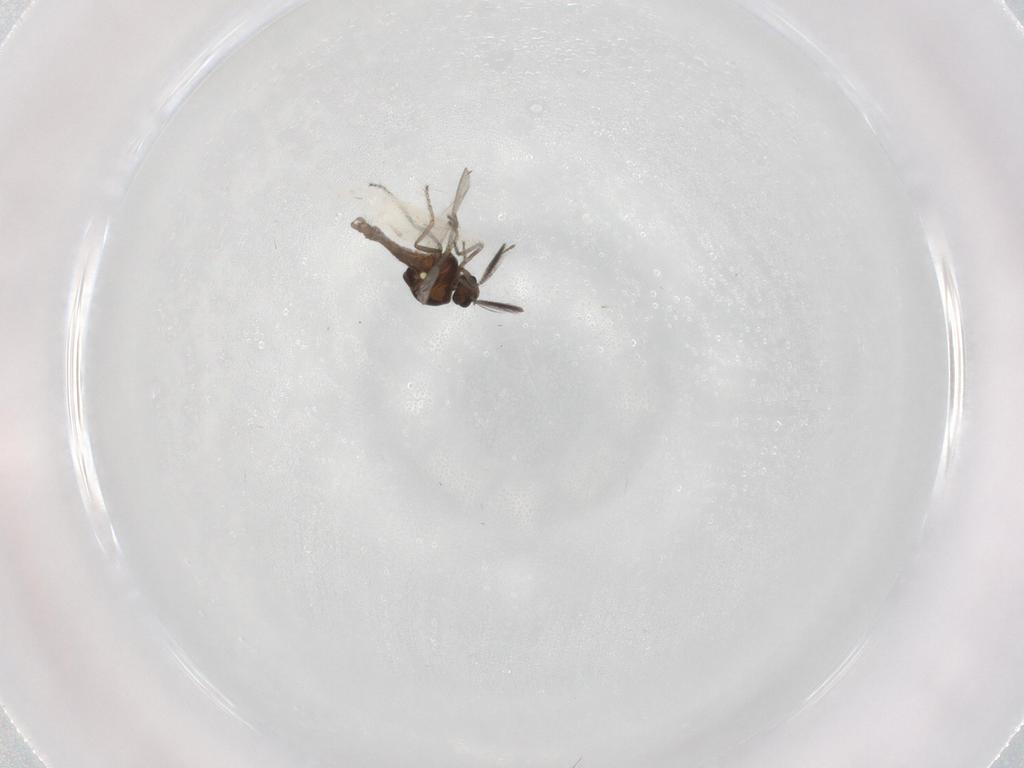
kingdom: Animalia
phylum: Arthropoda
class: Insecta
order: Diptera
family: Ceratopogonidae
